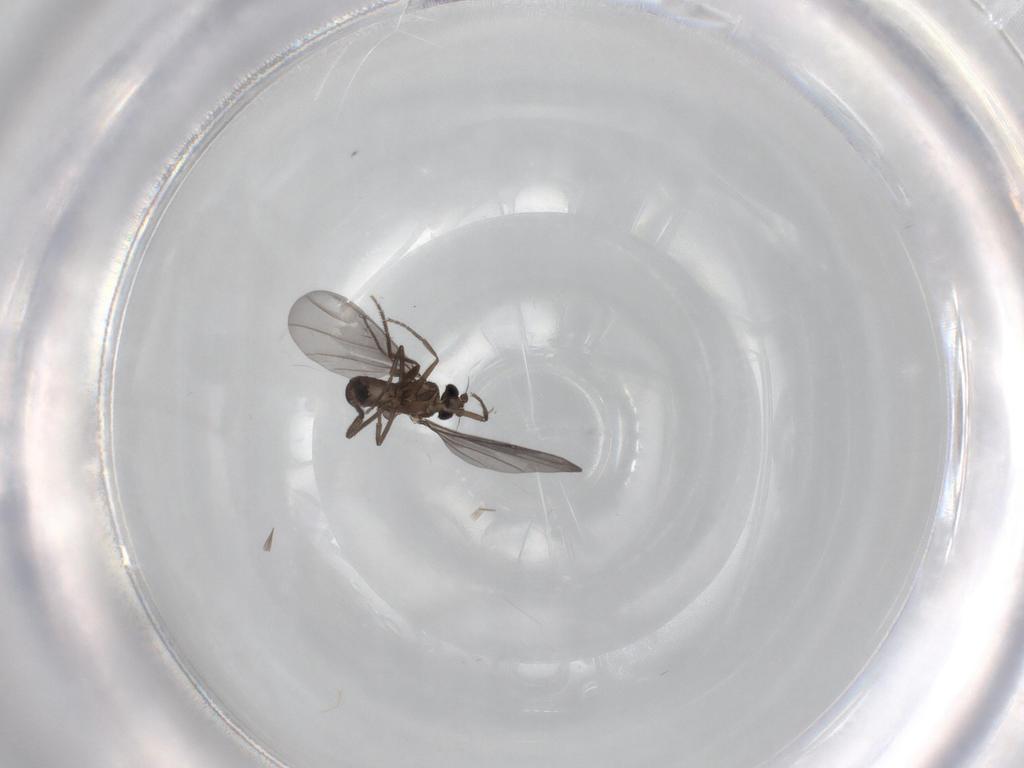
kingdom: Animalia
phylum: Arthropoda
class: Insecta
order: Diptera
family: Phoridae
